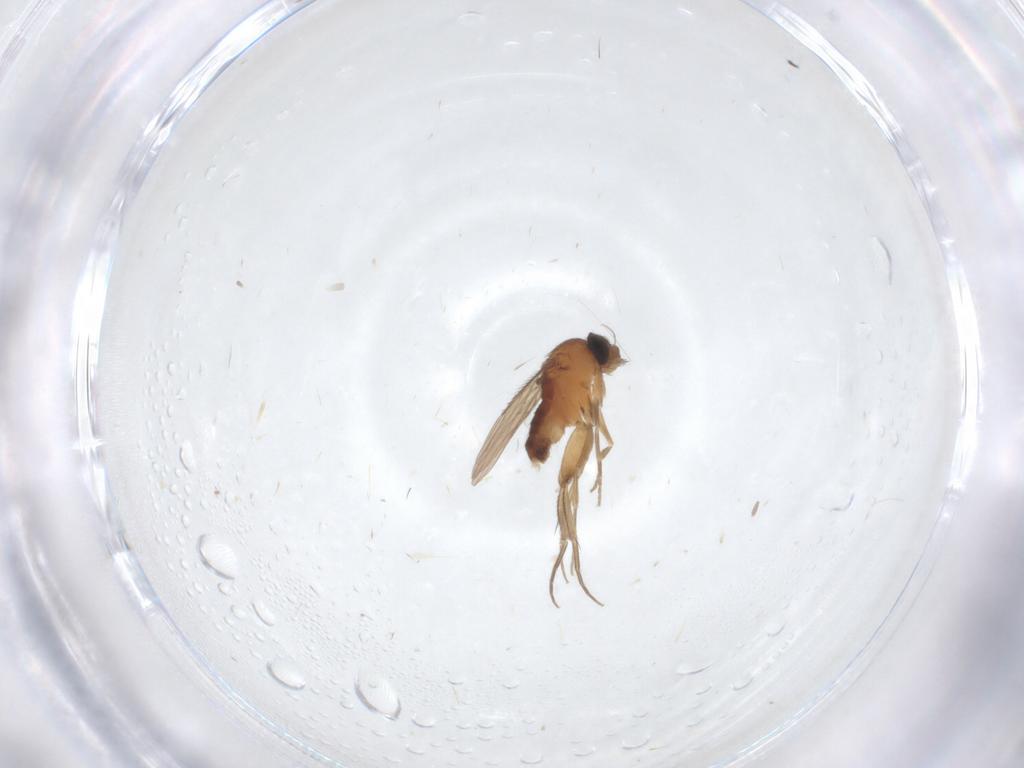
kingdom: Animalia
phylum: Arthropoda
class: Insecta
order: Diptera
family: Phoridae
